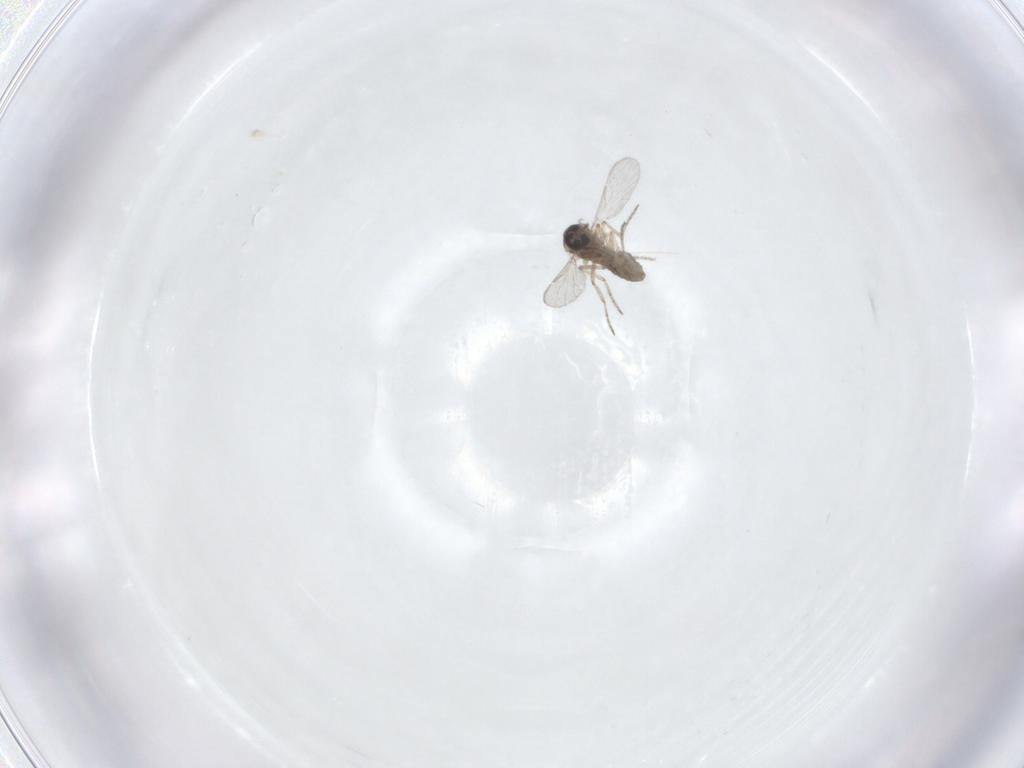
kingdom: Animalia
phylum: Arthropoda
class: Insecta
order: Diptera
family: Ceratopogonidae
